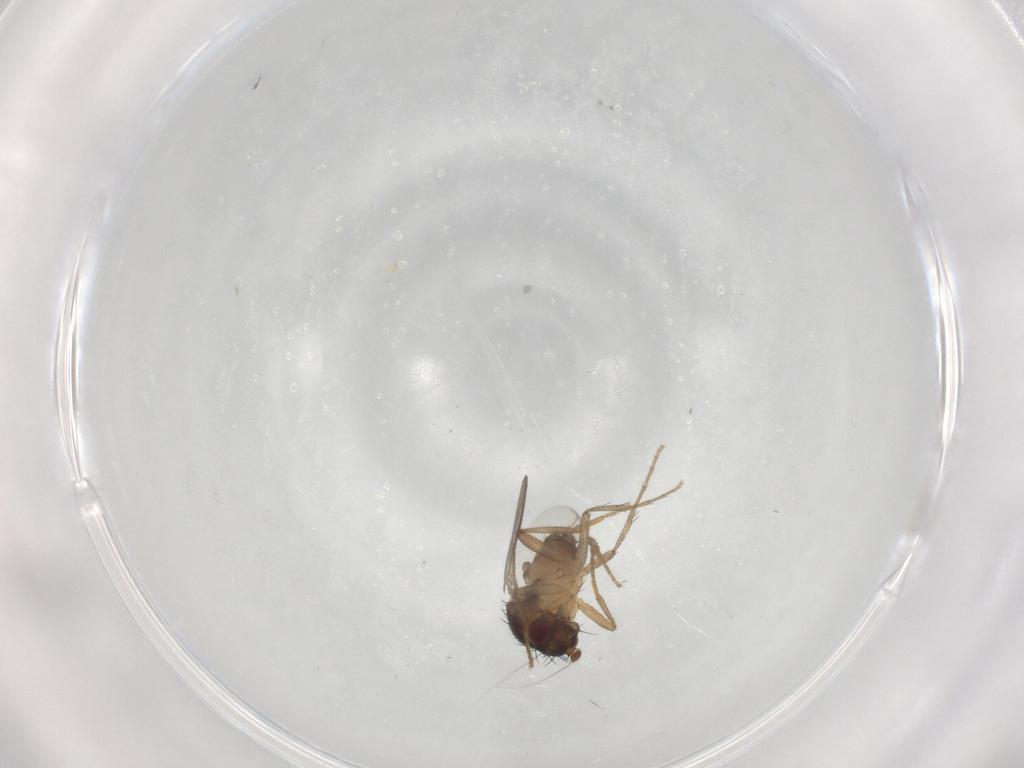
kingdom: Animalia
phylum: Arthropoda
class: Insecta
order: Diptera
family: Sphaeroceridae
